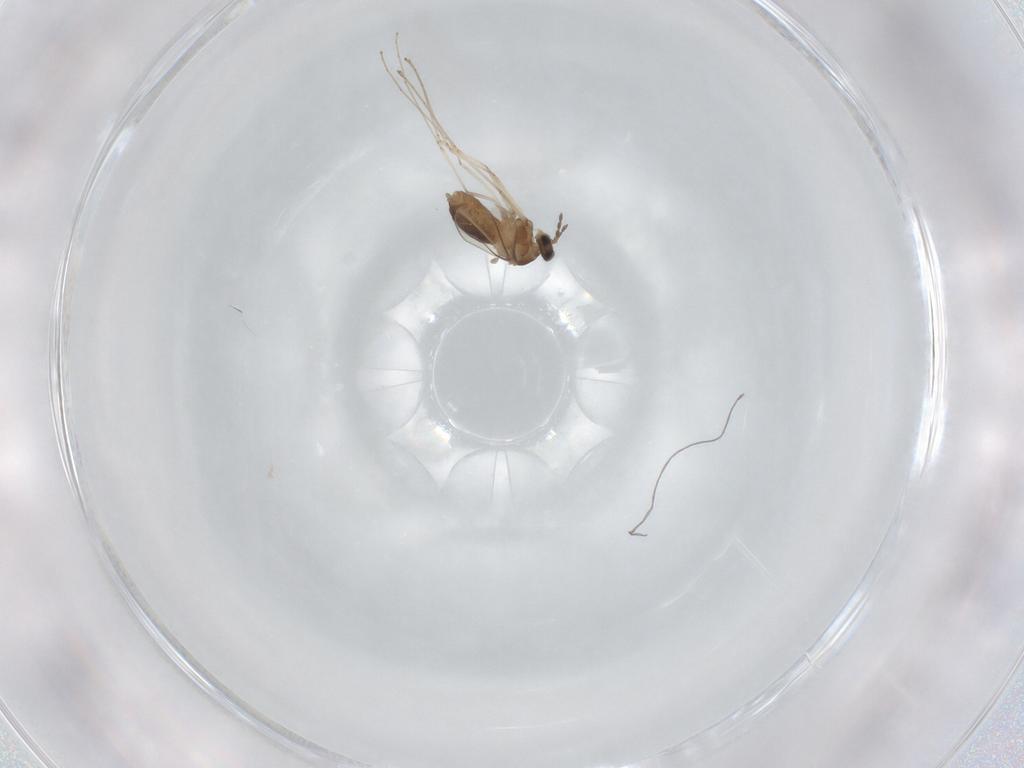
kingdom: Animalia
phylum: Arthropoda
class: Insecta
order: Diptera
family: Cecidomyiidae
